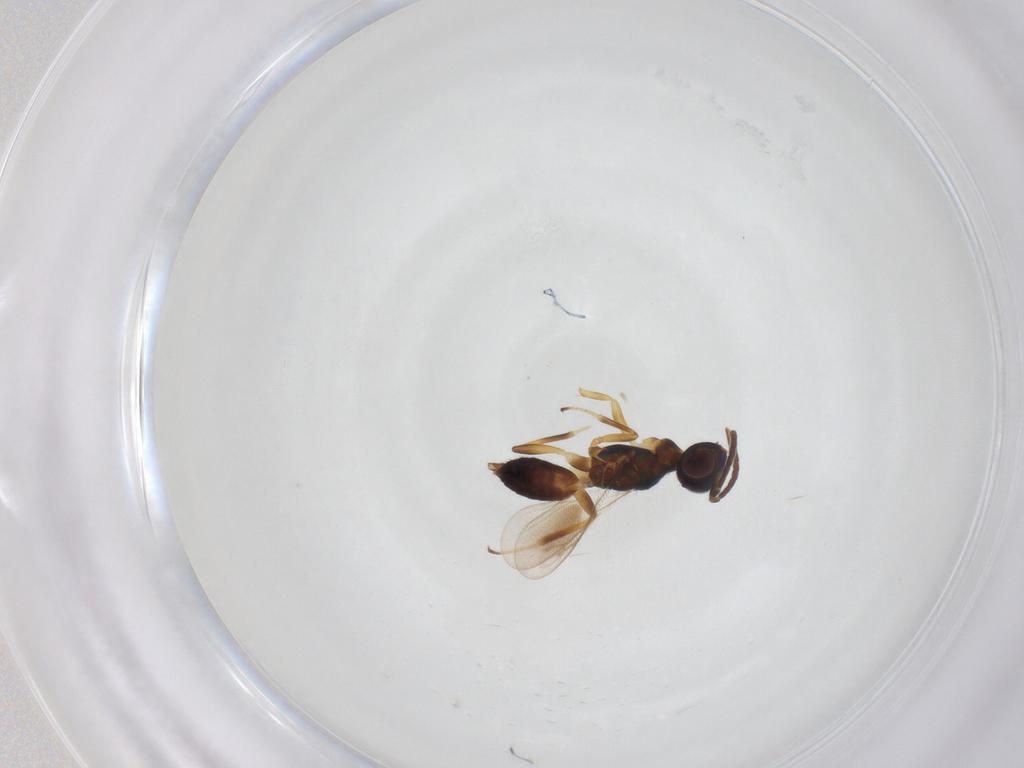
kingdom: Animalia
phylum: Arthropoda
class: Insecta
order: Hymenoptera
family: Eupelmidae
